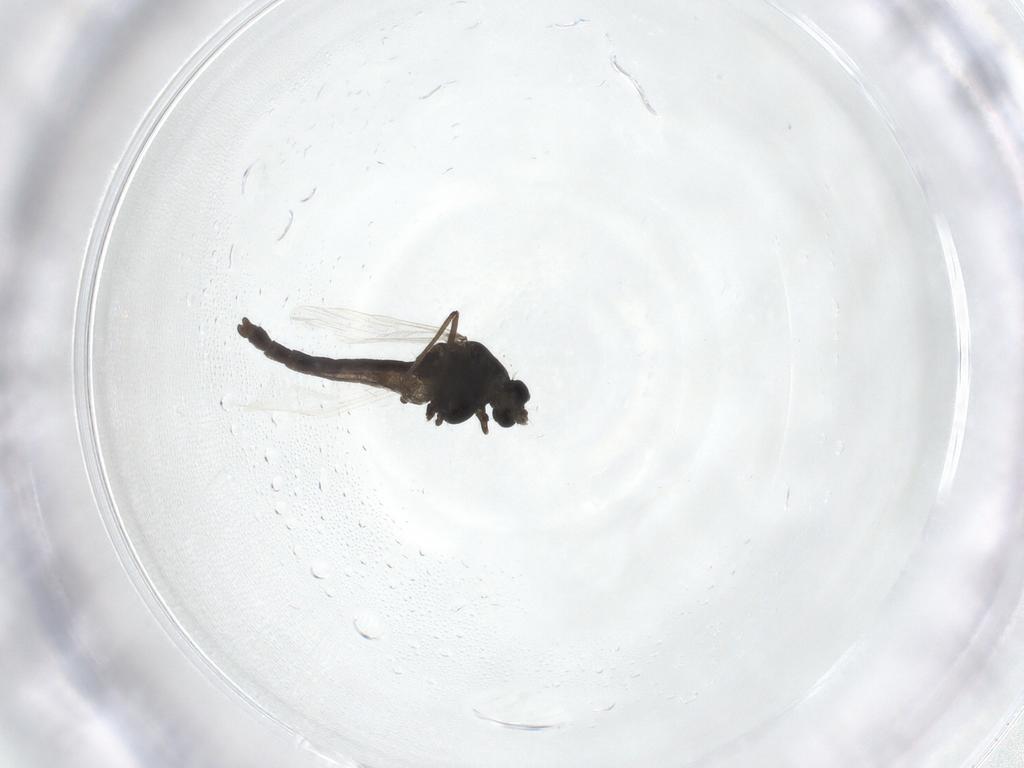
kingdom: Animalia
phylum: Arthropoda
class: Insecta
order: Diptera
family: Chironomidae
